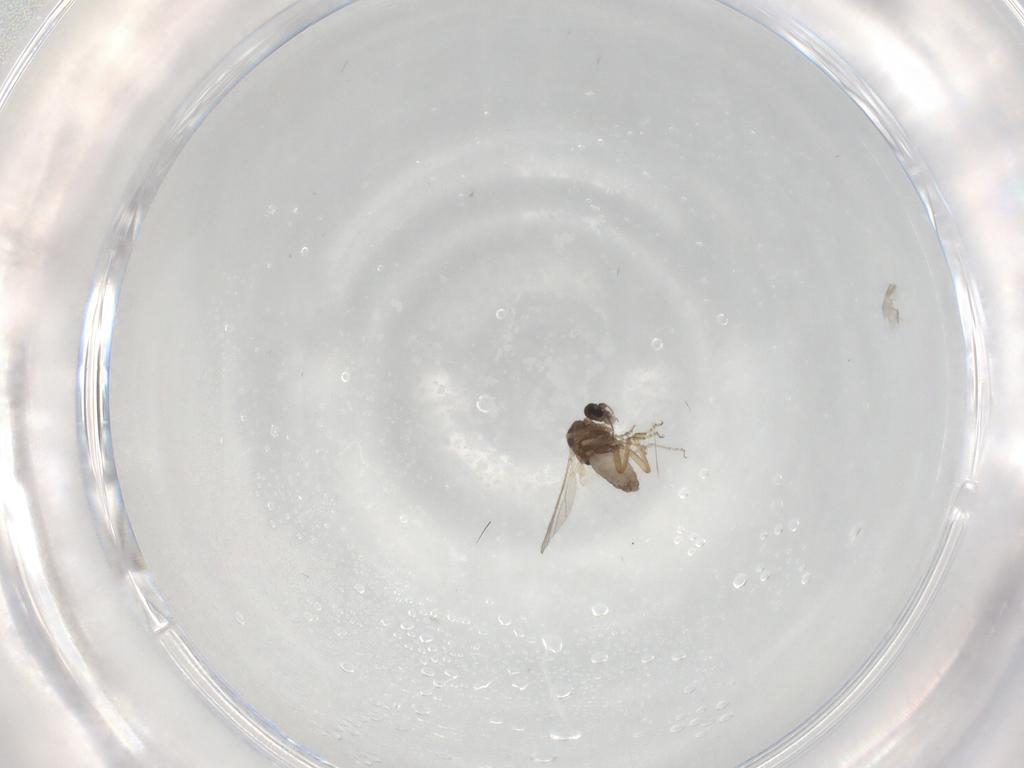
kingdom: Animalia
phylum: Arthropoda
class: Insecta
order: Diptera
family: Ceratopogonidae
